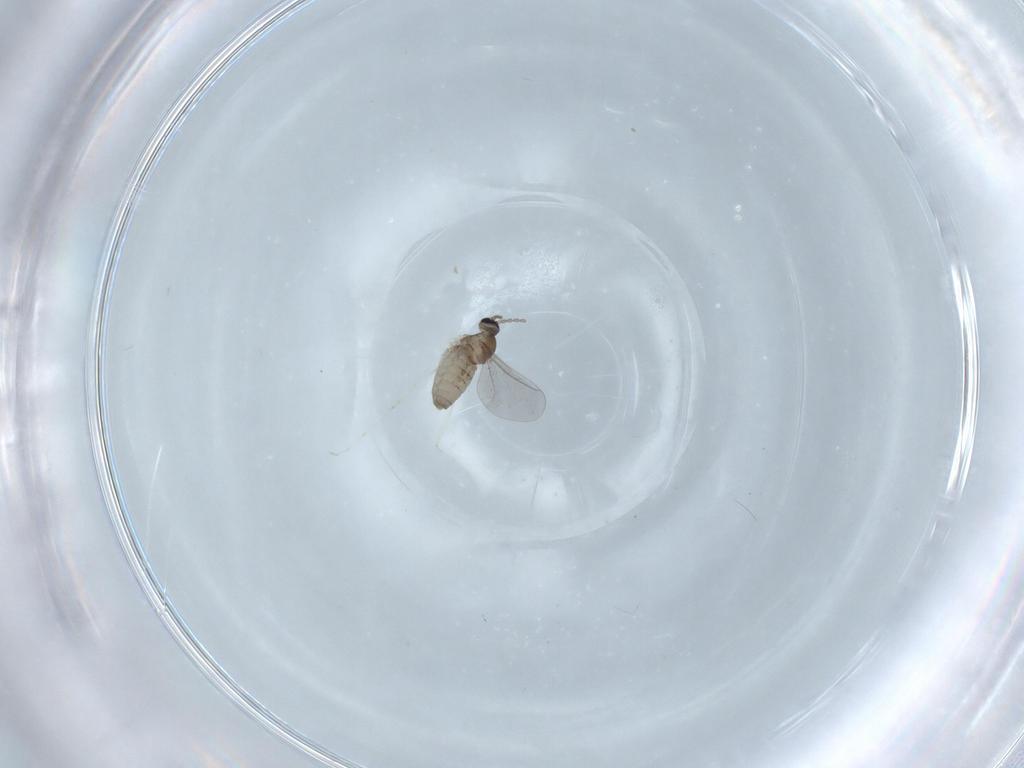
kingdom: Animalia
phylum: Arthropoda
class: Insecta
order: Diptera
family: Cecidomyiidae
